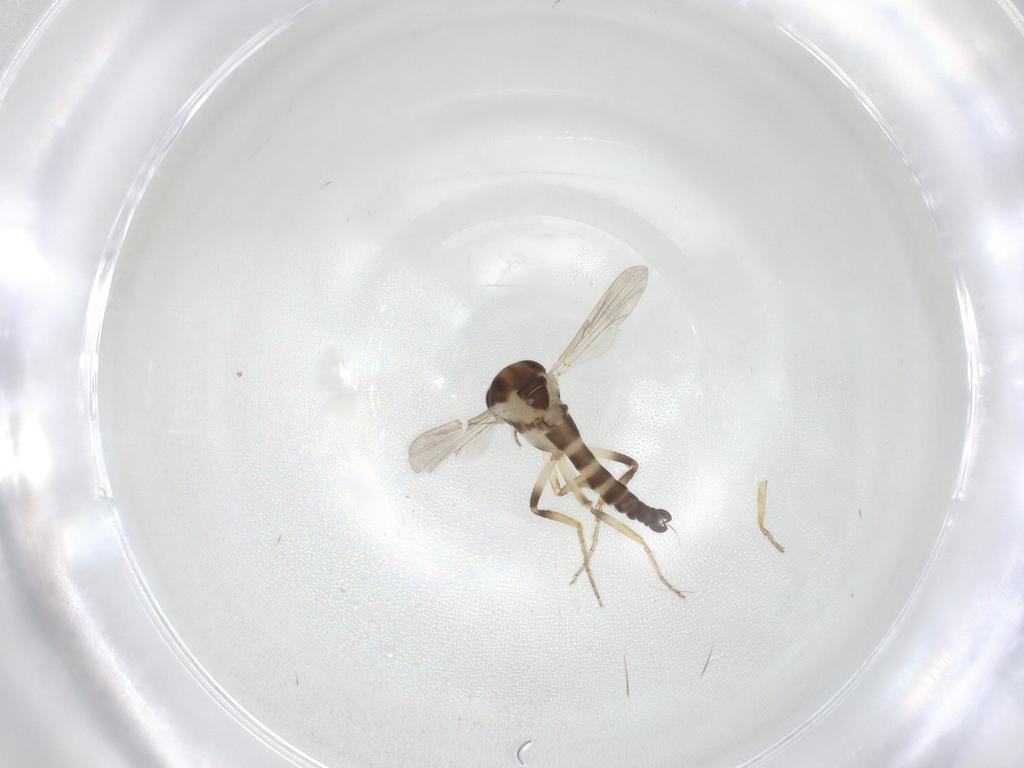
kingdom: Animalia
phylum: Arthropoda
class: Insecta
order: Diptera
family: Ceratopogonidae
